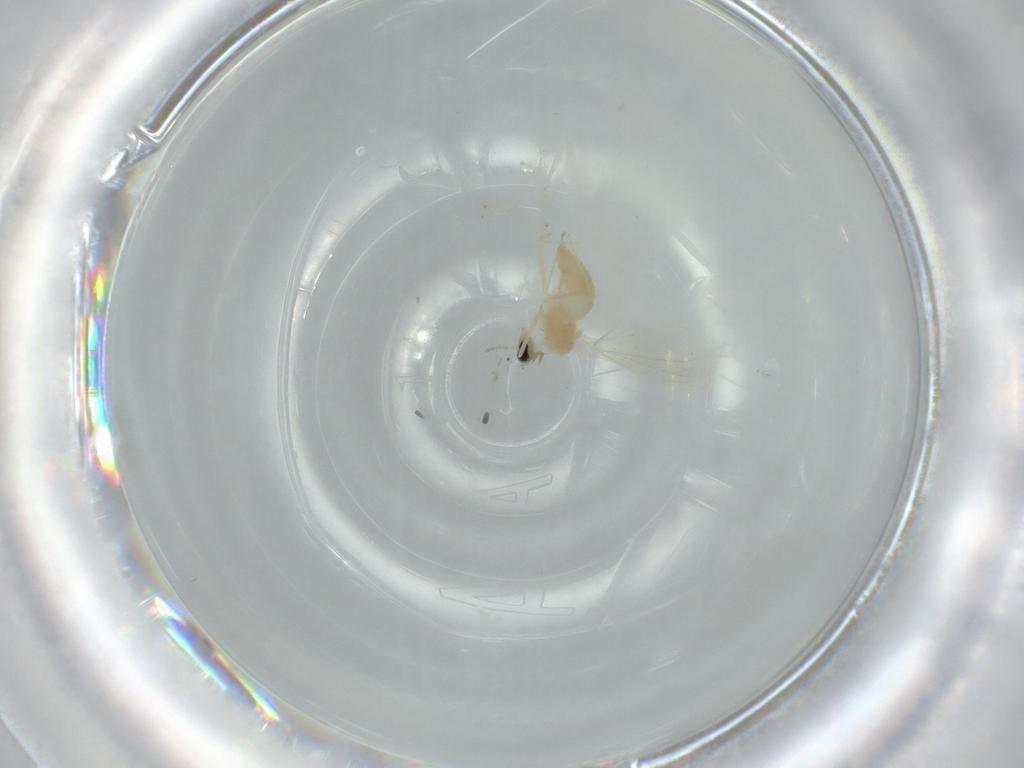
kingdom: Animalia
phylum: Arthropoda
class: Insecta
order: Diptera
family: Cecidomyiidae
